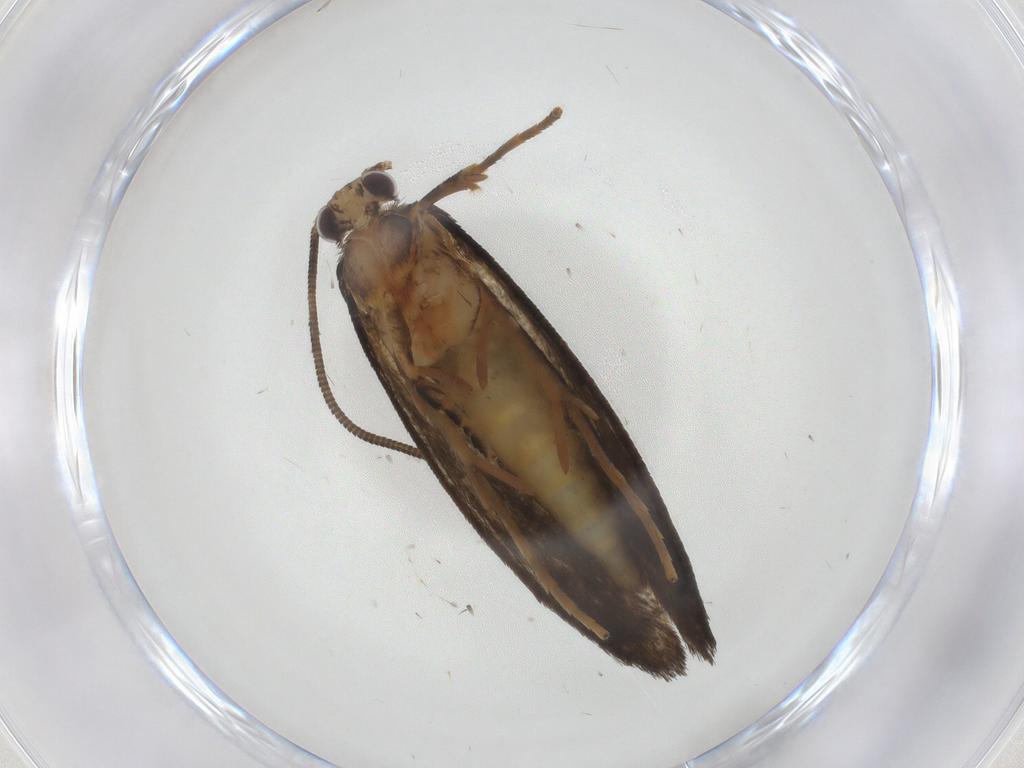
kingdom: Animalia
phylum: Arthropoda
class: Insecta
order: Lepidoptera
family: Tineidae
